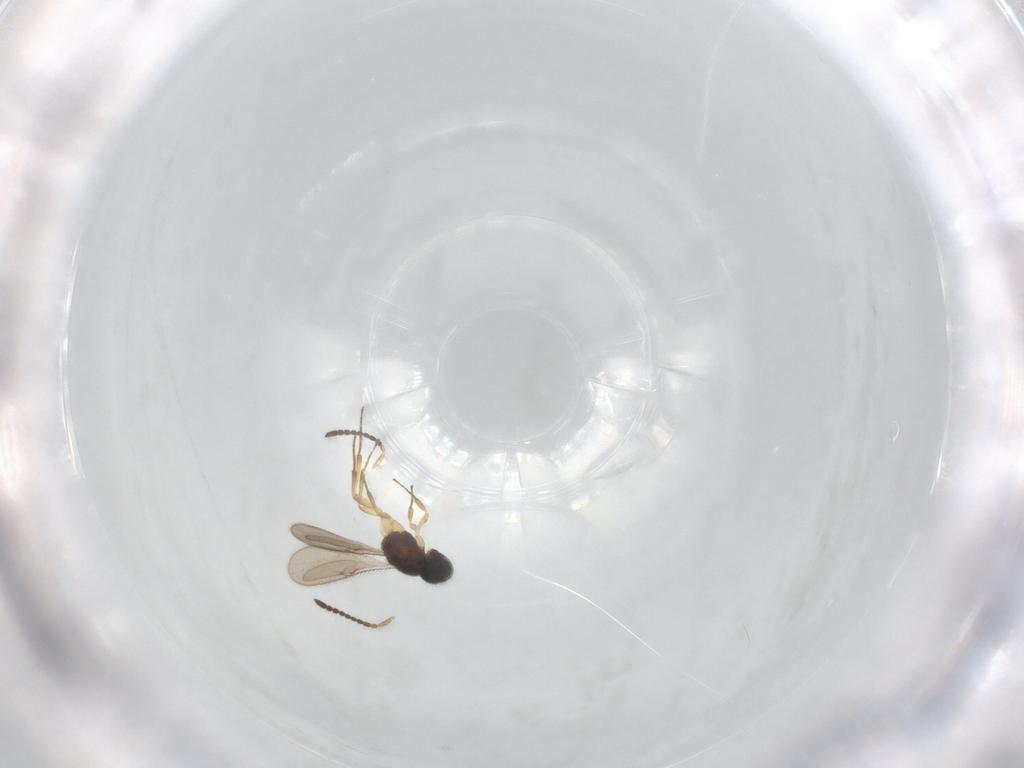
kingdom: Animalia
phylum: Arthropoda
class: Insecta
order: Hymenoptera
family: Scelionidae
